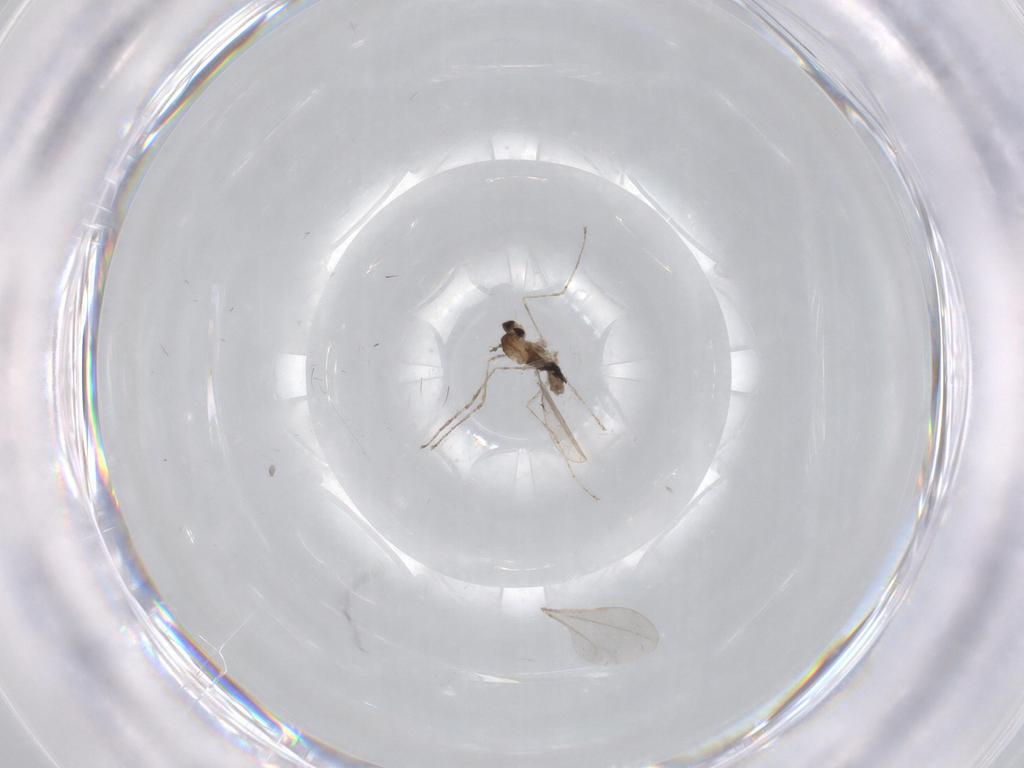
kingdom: Animalia
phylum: Arthropoda
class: Insecta
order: Diptera
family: Cecidomyiidae
